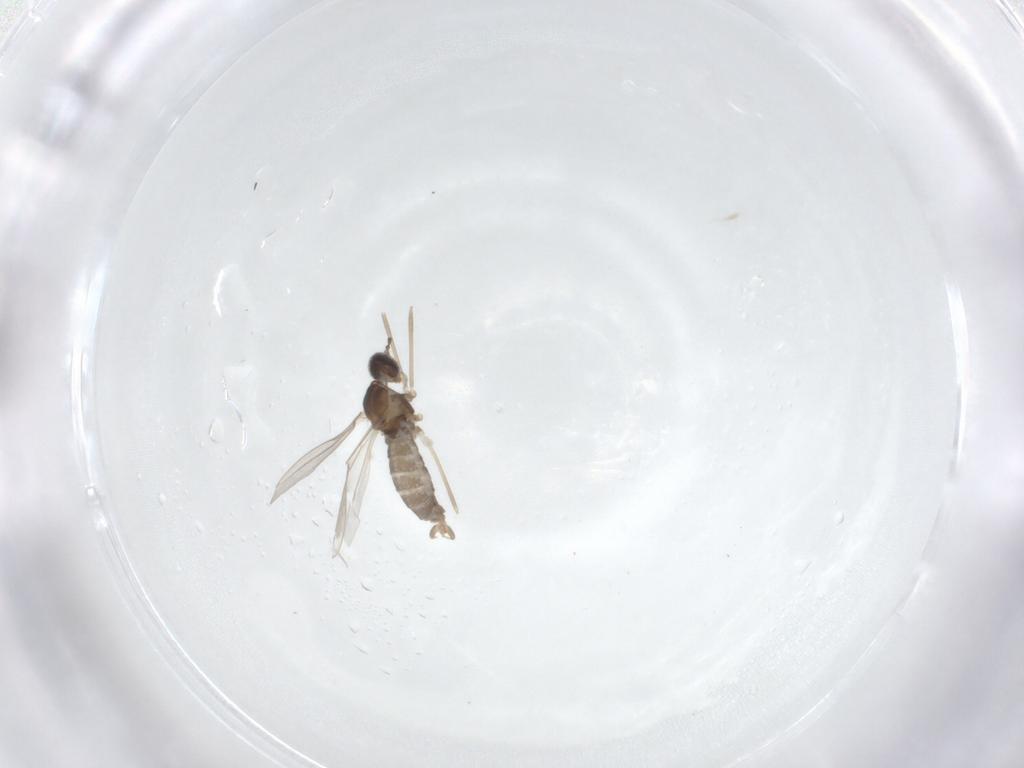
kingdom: Animalia
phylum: Arthropoda
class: Insecta
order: Diptera
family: Cecidomyiidae
